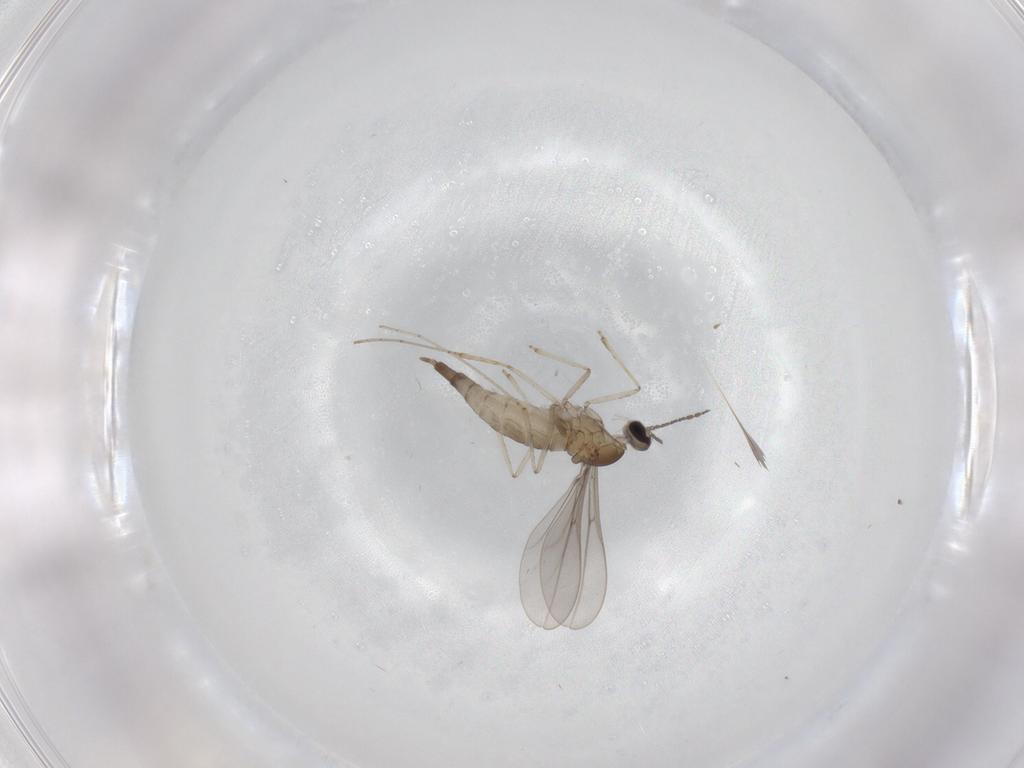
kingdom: Animalia
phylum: Arthropoda
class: Insecta
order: Diptera
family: Cecidomyiidae
